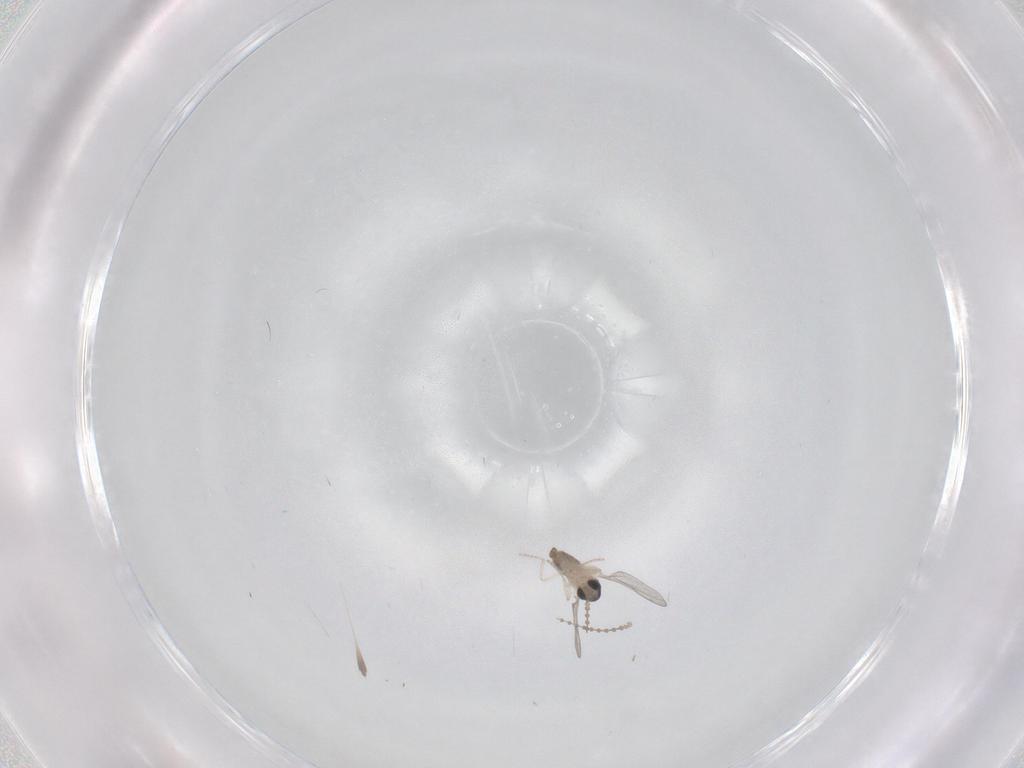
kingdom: Animalia
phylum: Arthropoda
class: Insecta
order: Diptera
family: Cecidomyiidae
